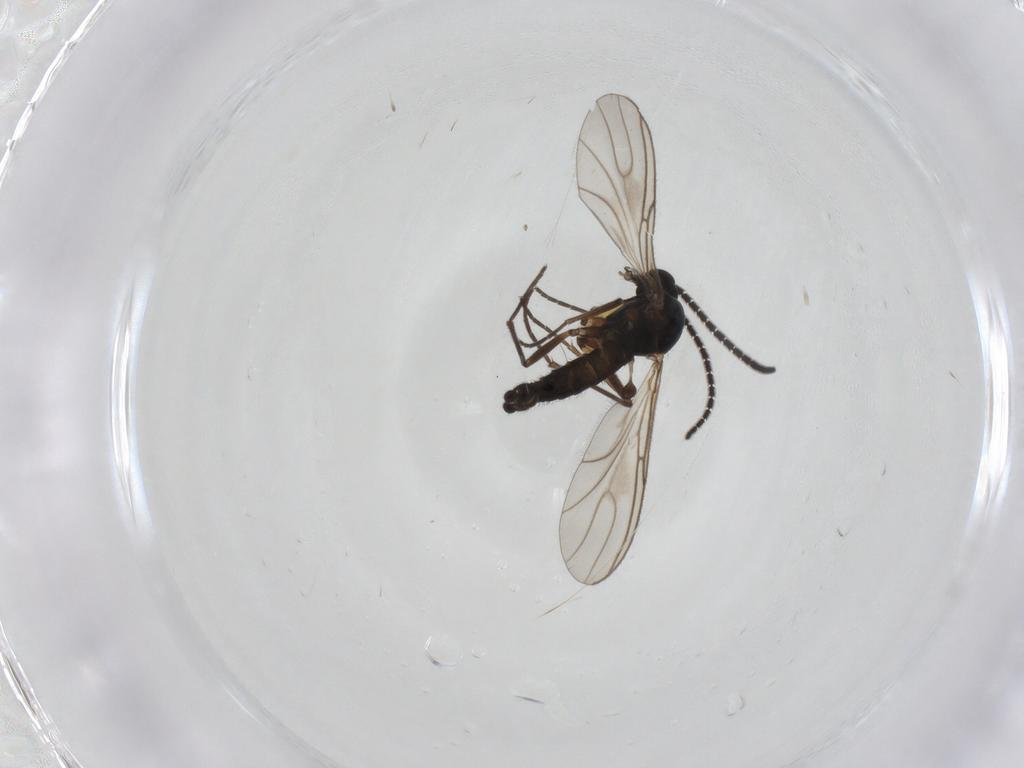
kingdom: Animalia
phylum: Arthropoda
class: Insecta
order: Diptera
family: Sciaridae
